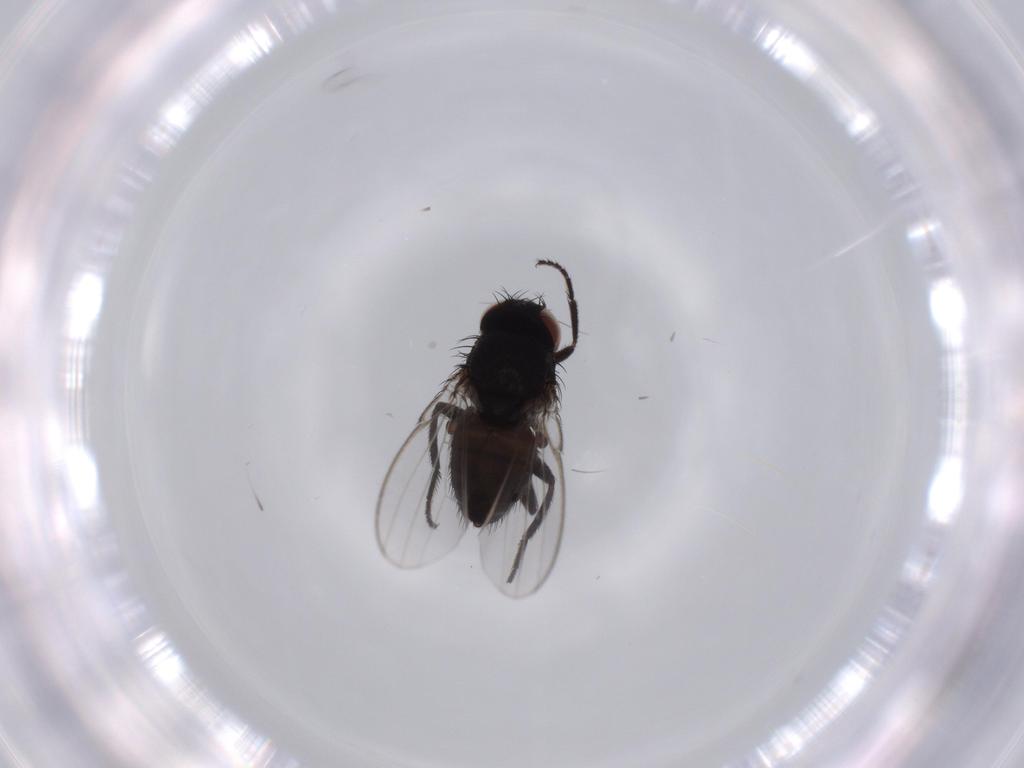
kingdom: Animalia
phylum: Arthropoda
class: Insecta
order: Diptera
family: Milichiidae
